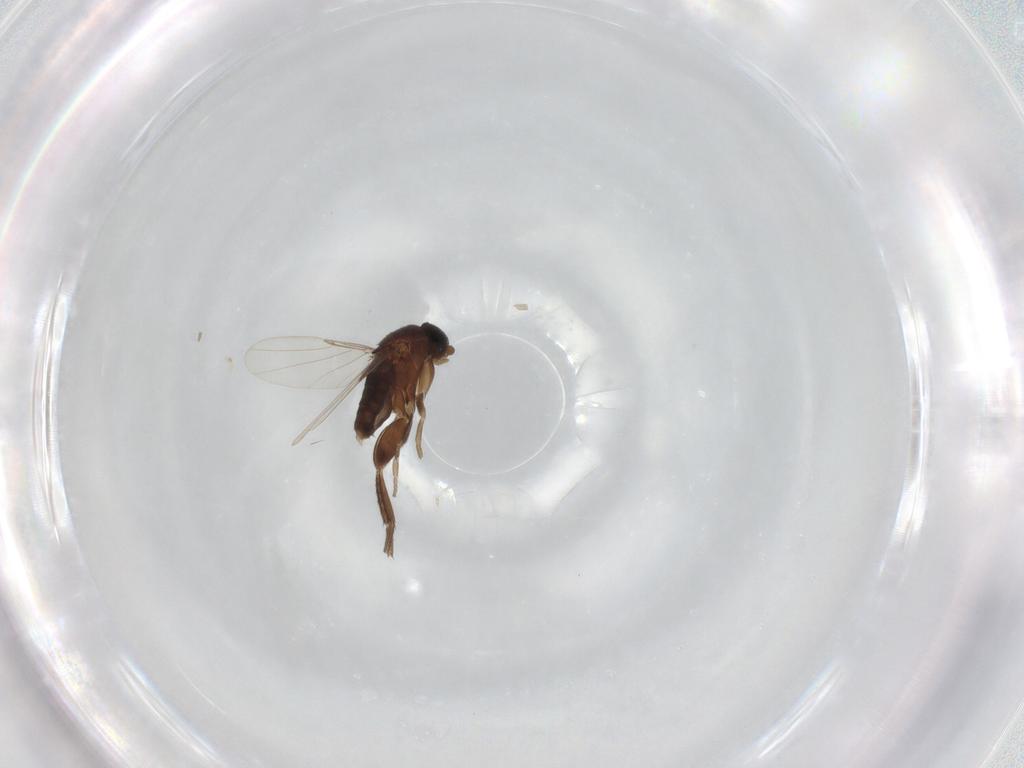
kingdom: Animalia
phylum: Arthropoda
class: Insecta
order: Diptera
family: Phoridae
